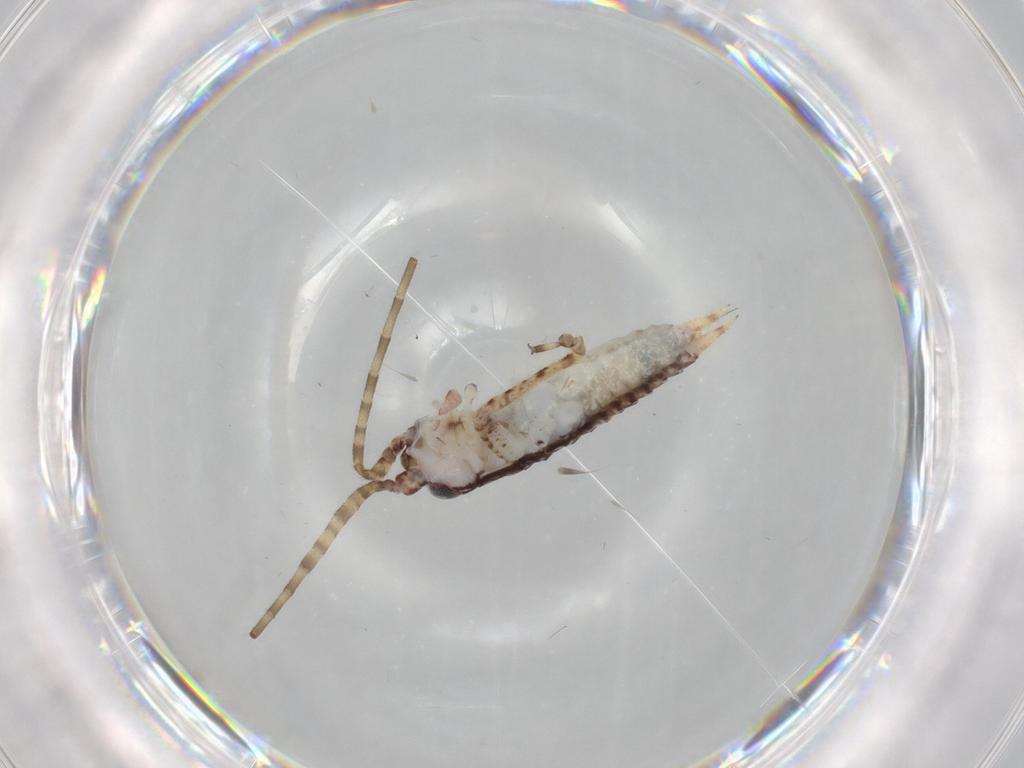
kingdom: Animalia
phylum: Arthropoda
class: Insecta
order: Orthoptera
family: Gryllidae
